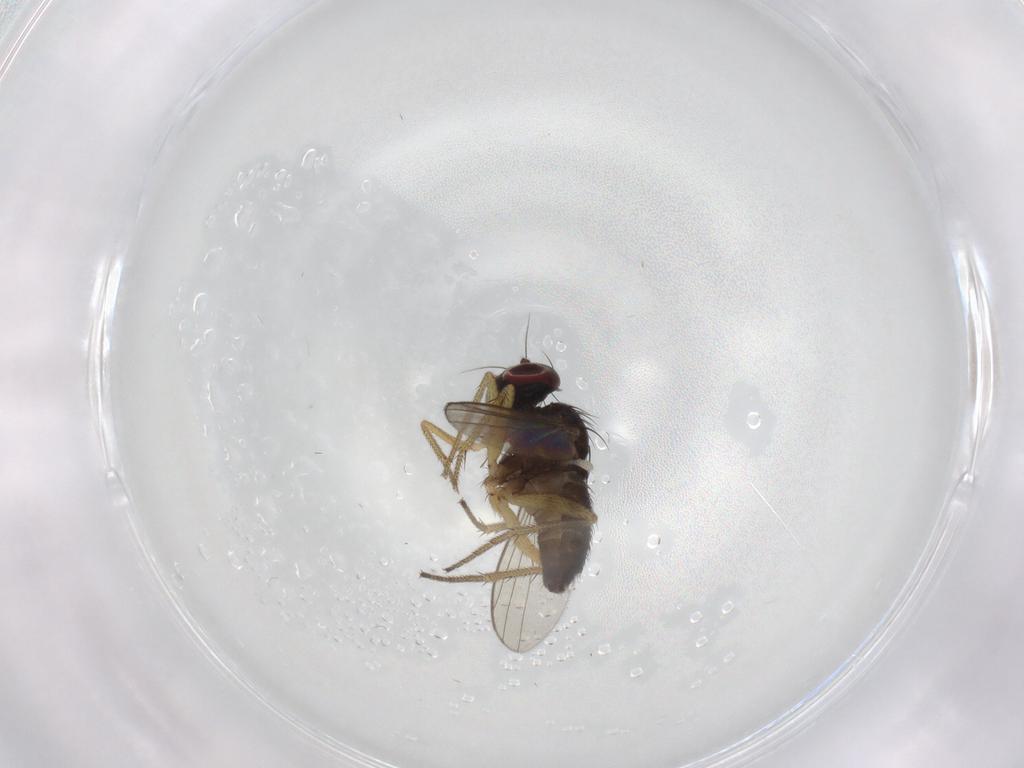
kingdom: Animalia
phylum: Arthropoda
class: Insecta
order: Diptera
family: Dolichopodidae
